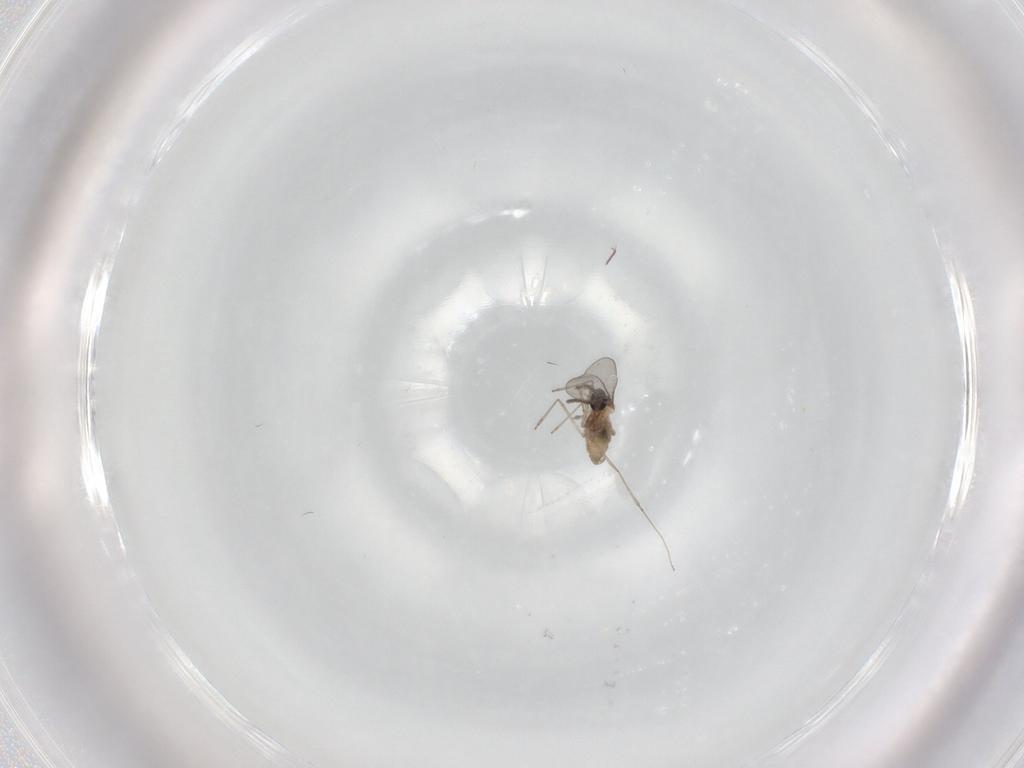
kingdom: Animalia
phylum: Arthropoda
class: Insecta
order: Diptera
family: Chironomidae
